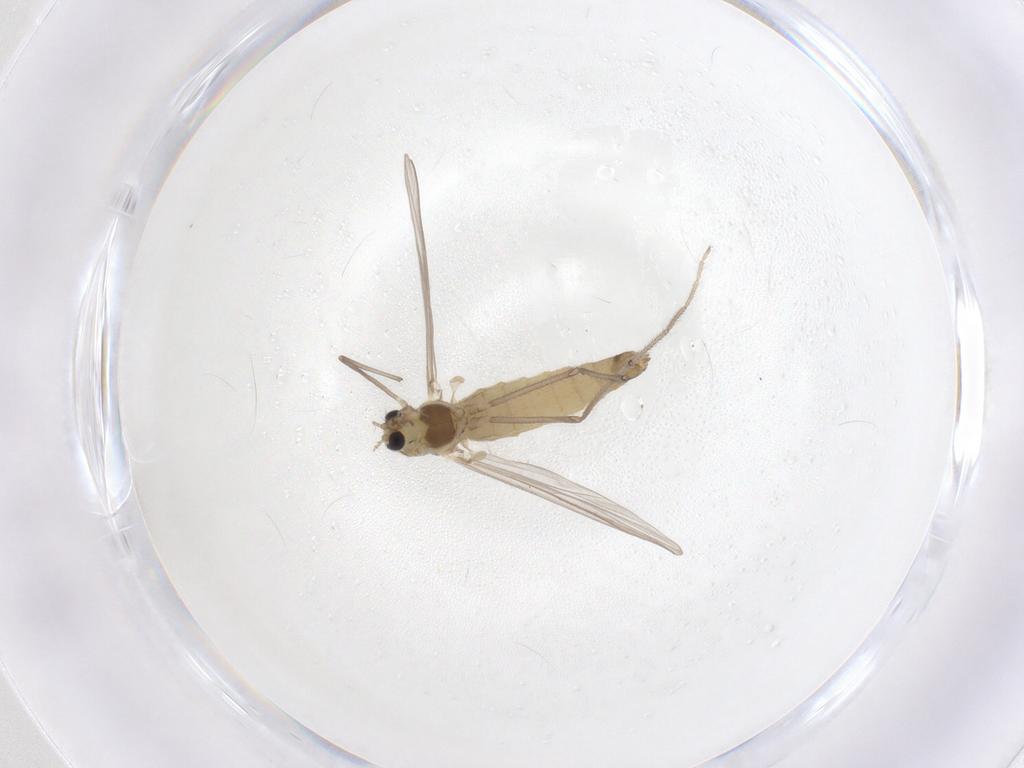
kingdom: Animalia
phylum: Arthropoda
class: Insecta
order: Diptera
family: Chironomidae
